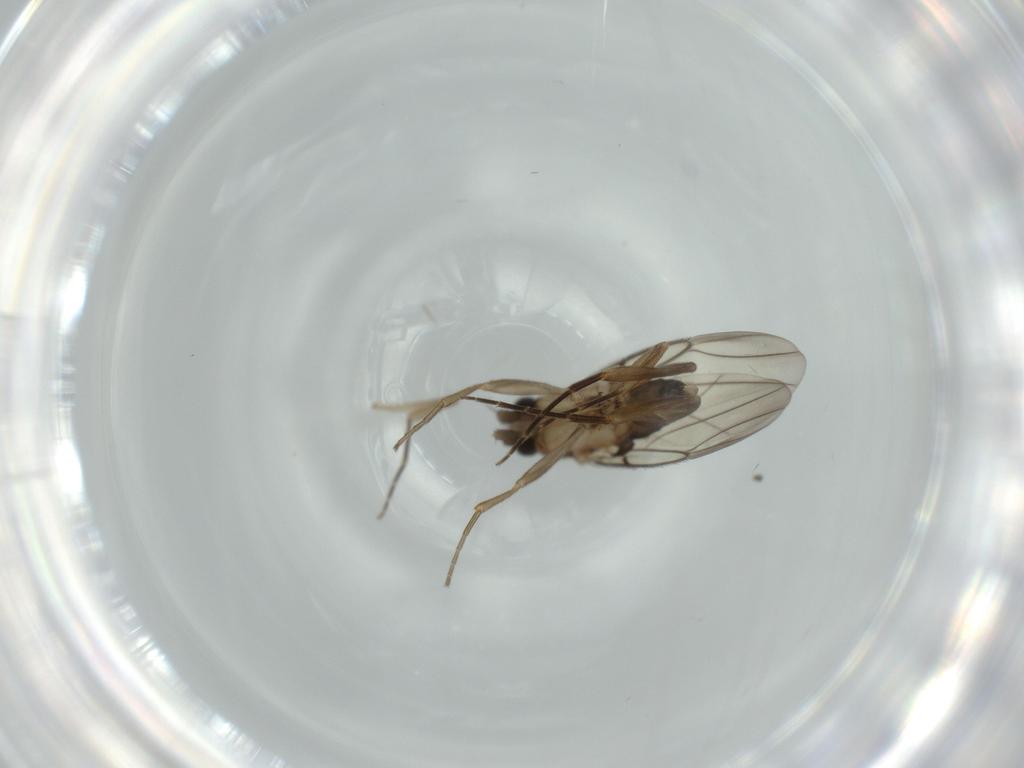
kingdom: Animalia
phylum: Arthropoda
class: Insecta
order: Diptera
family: Phoridae
